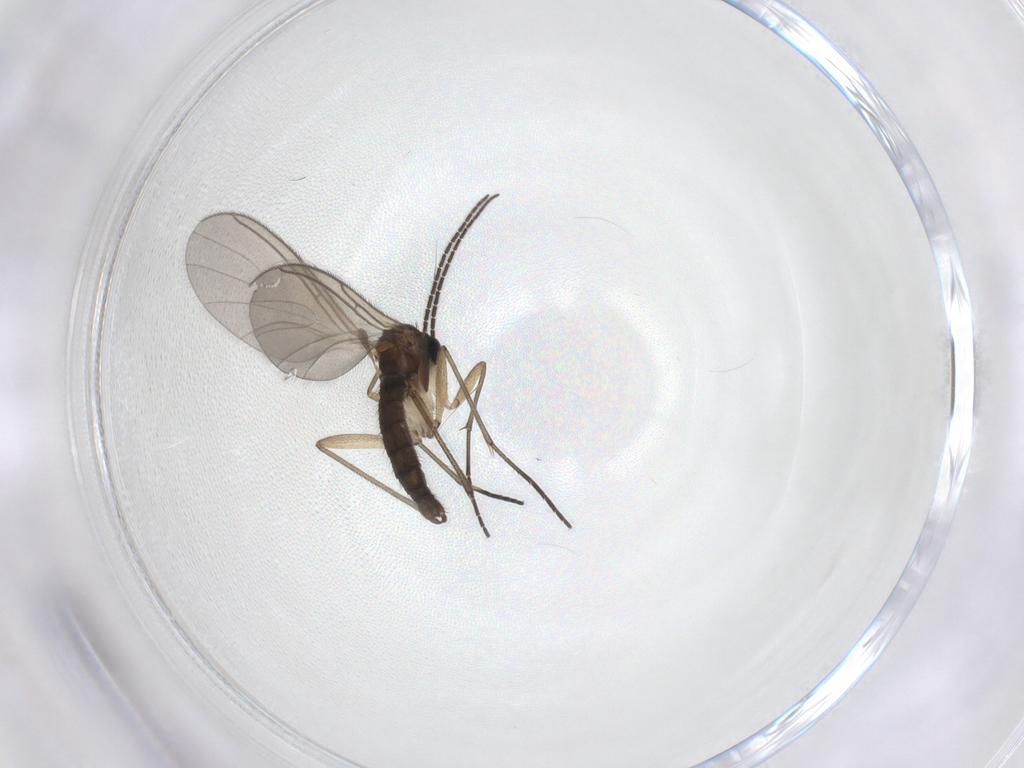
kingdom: Animalia
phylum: Arthropoda
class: Insecta
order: Diptera
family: Sciaridae
